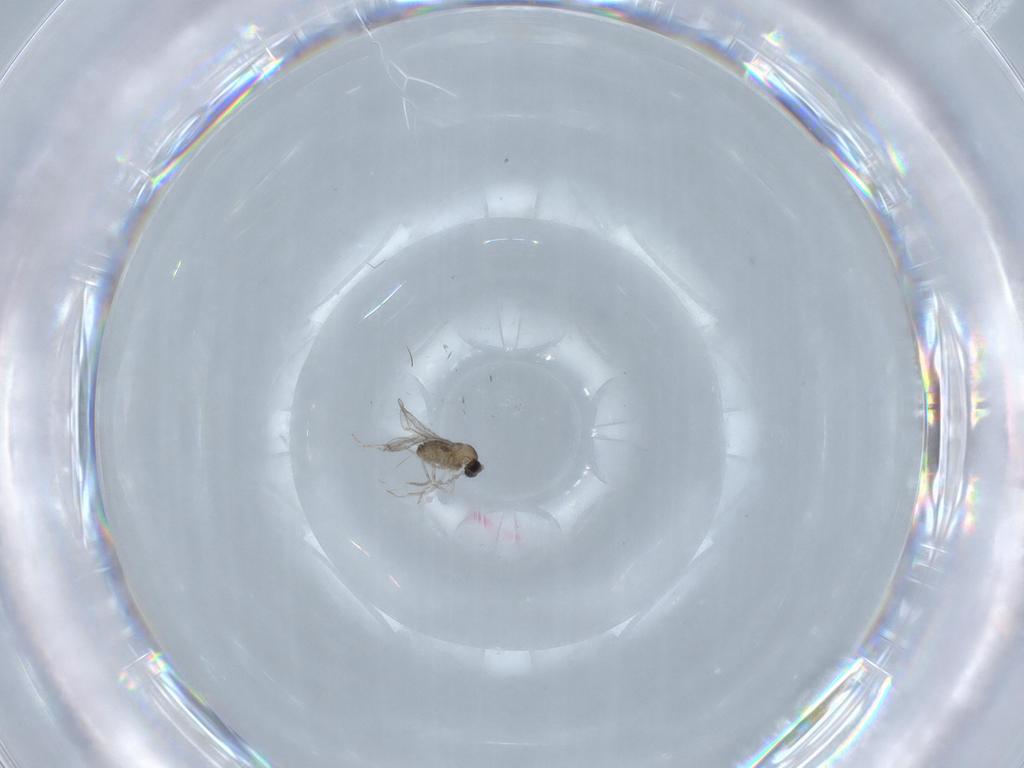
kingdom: Animalia
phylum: Arthropoda
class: Insecta
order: Diptera
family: Cecidomyiidae
